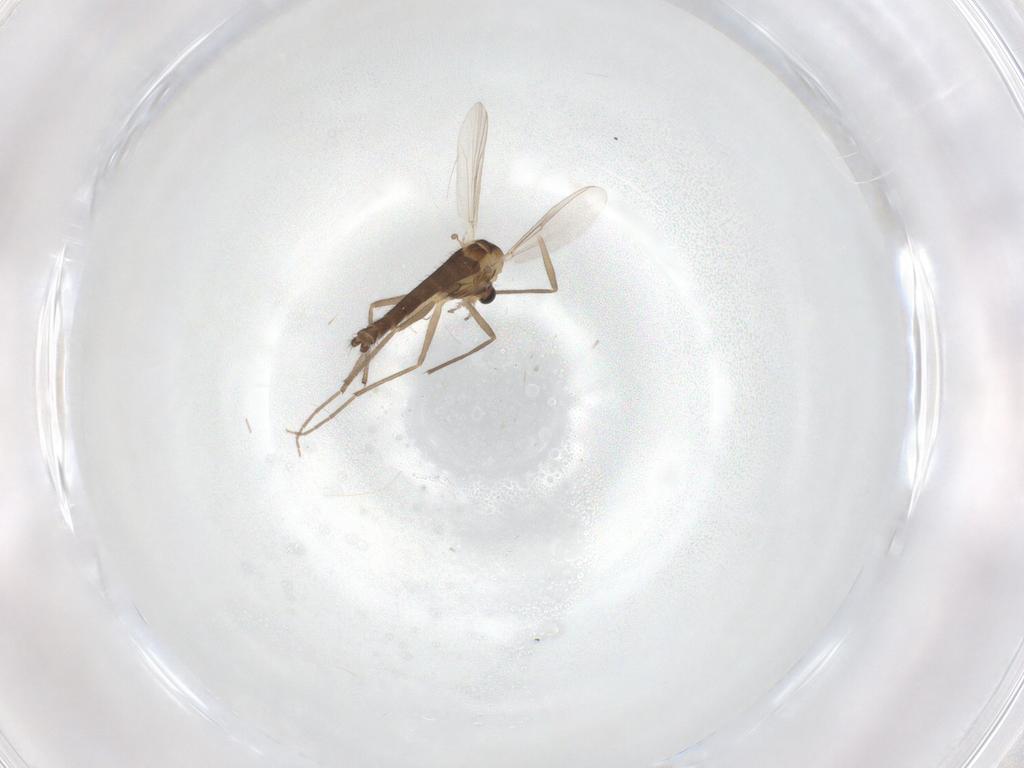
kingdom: Animalia
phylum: Arthropoda
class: Insecta
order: Diptera
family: Chironomidae
